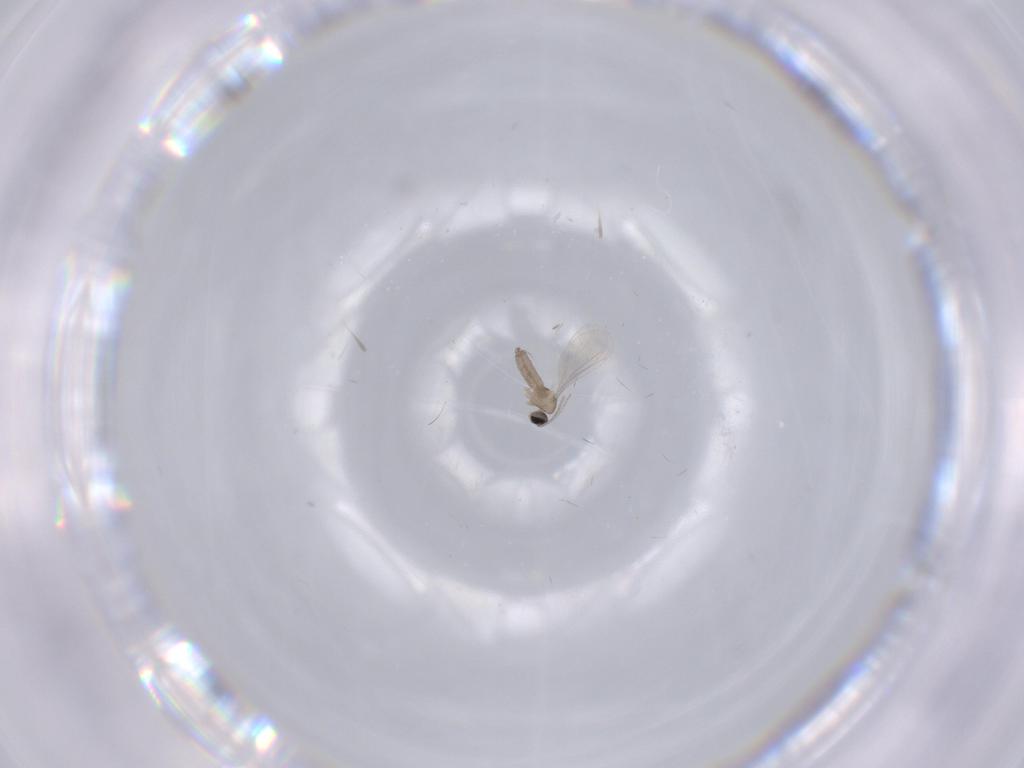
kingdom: Animalia
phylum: Arthropoda
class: Insecta
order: Diptera
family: Cecidomyiidae
